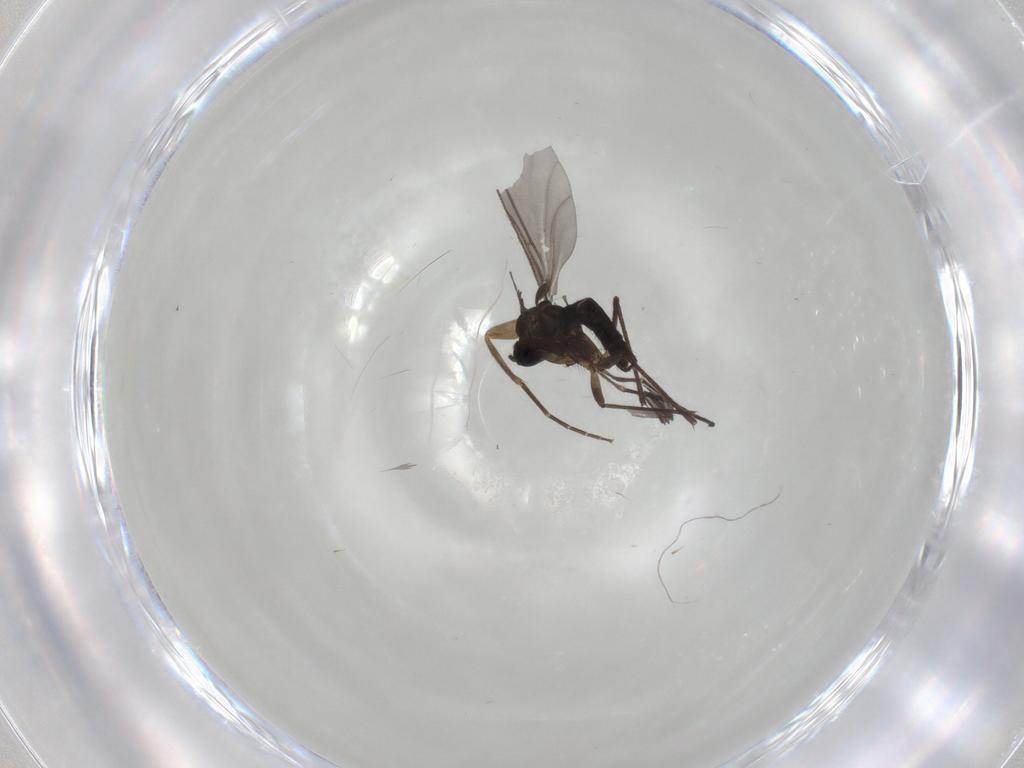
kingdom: Animalia
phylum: Arthropoda
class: Insecta
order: Diptera
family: Sciaridae
